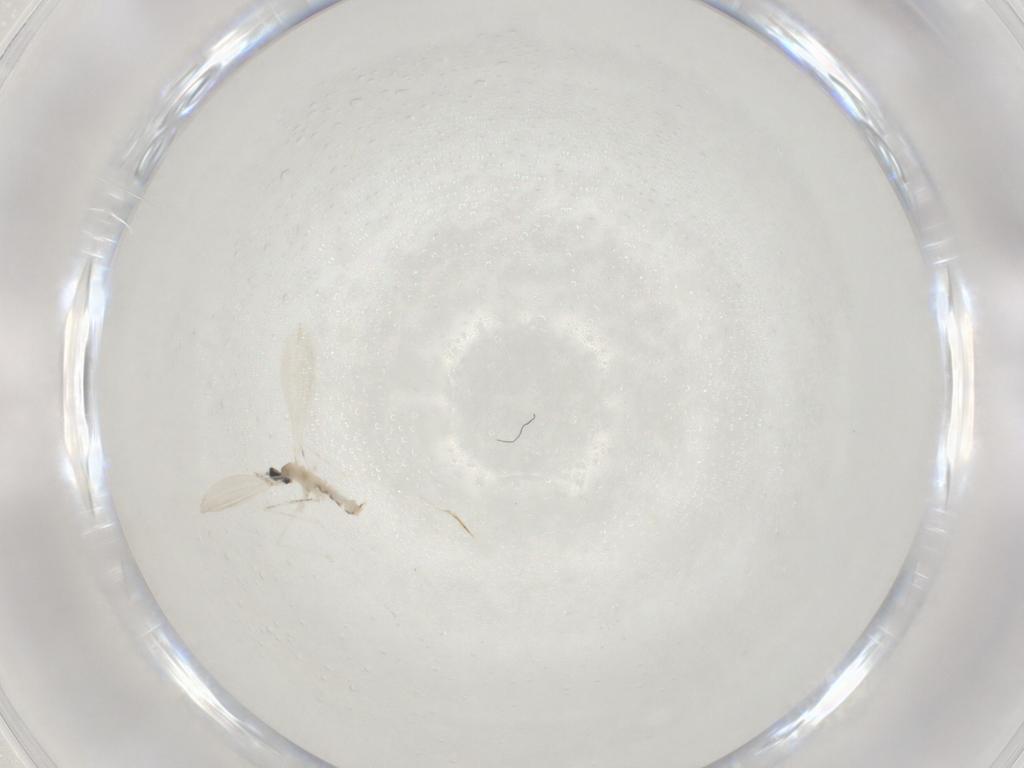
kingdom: Animalia
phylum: Arthropoda
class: Insecta
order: Diptera
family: Cecidomyiidae
